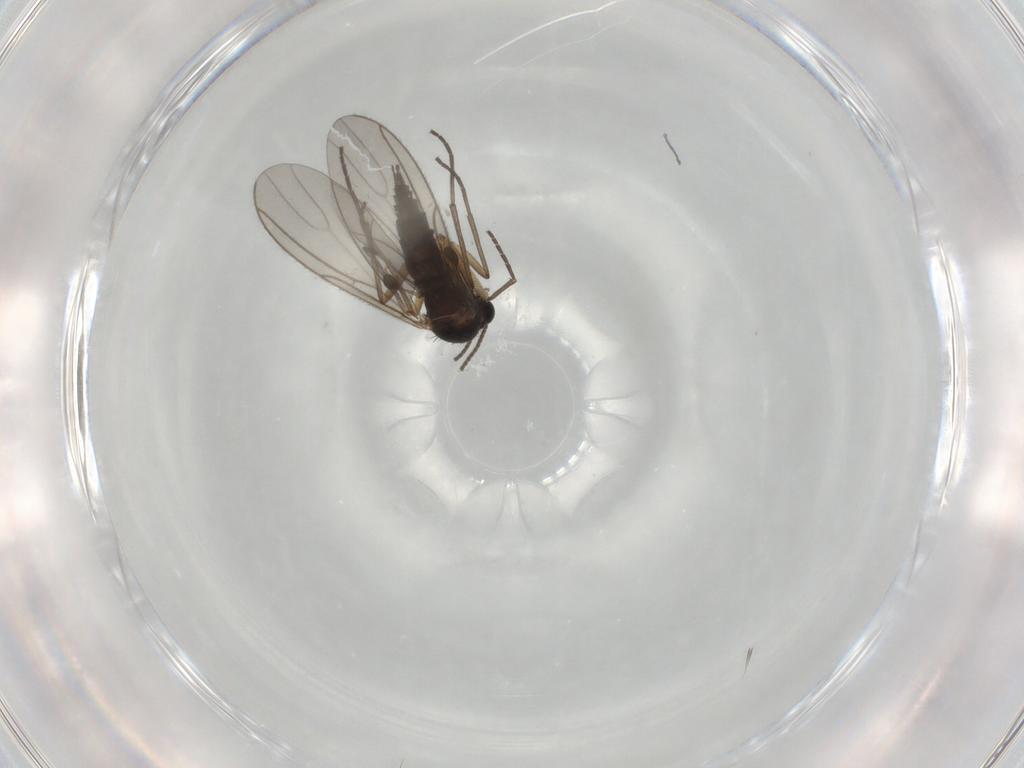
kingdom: Animalia
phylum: Arthropoda
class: Insecta
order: Diptera
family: Sciaridae
